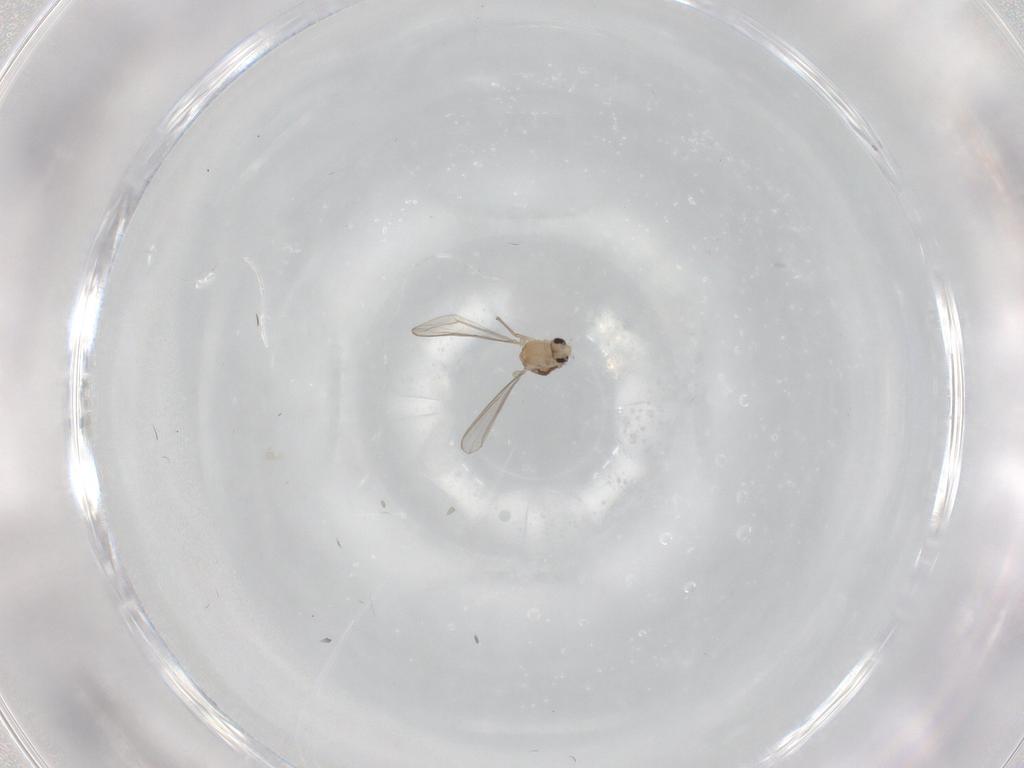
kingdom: Animalia
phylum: Arthropoda
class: Insecta
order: Diptera
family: Chironomidae
